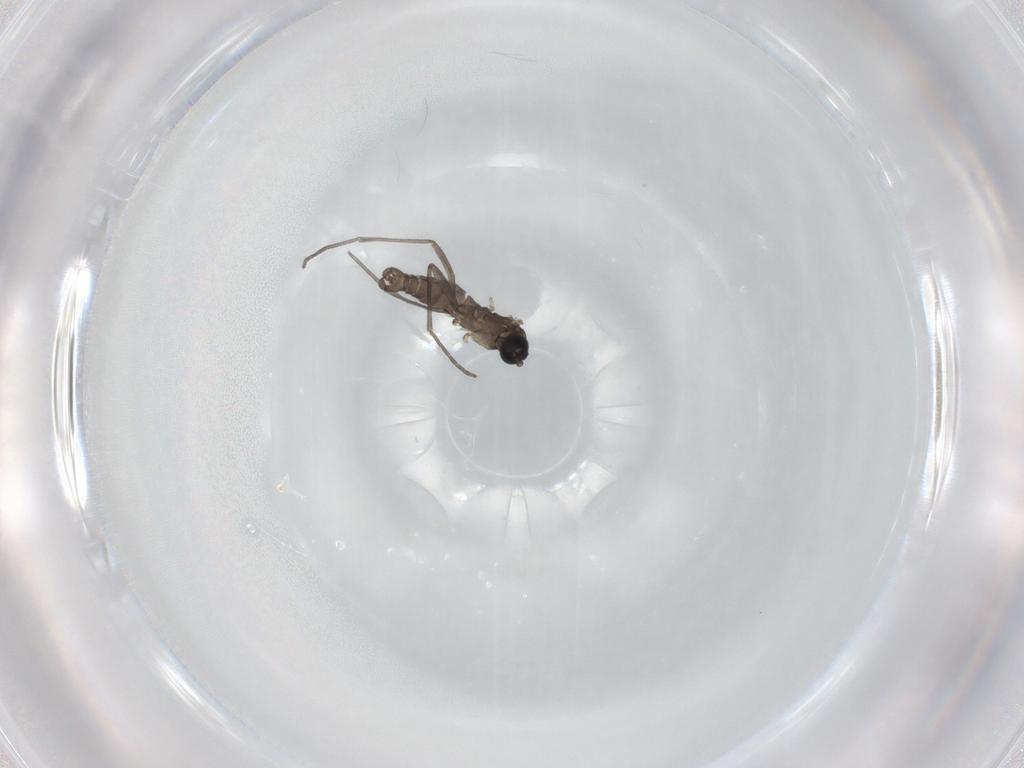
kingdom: Animalia
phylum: Arthropoda
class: Insecta
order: Diptera
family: Sciaridae
